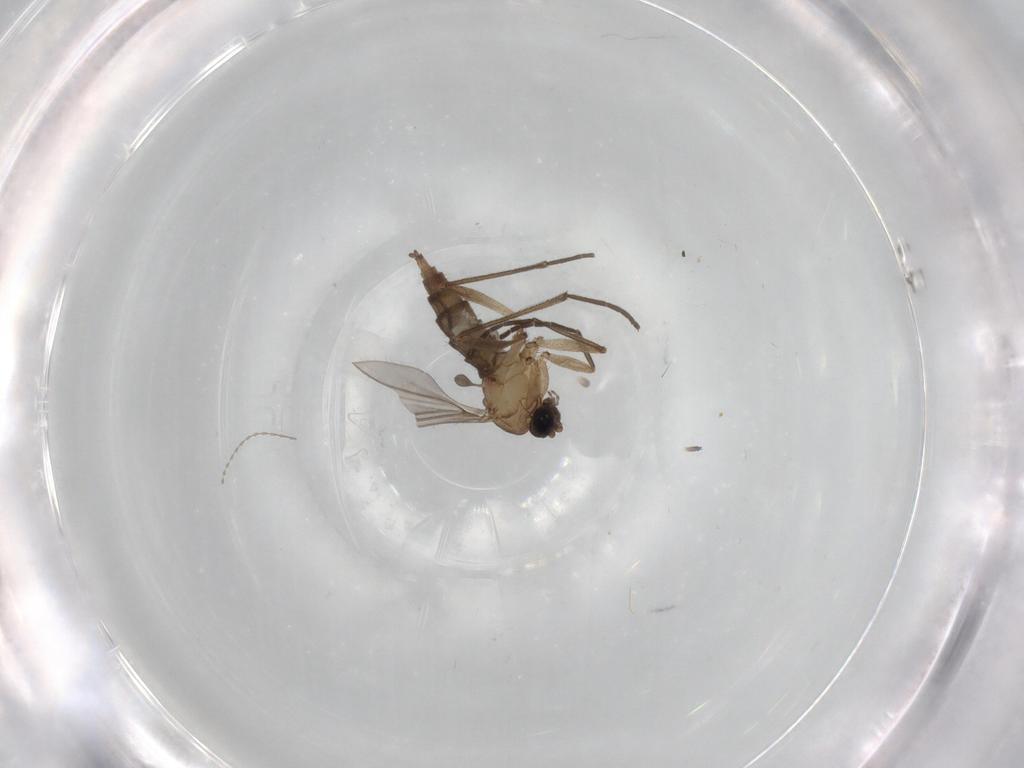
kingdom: Animalia
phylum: Arthropoda
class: Insecta
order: Diptera
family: Sciaridae
